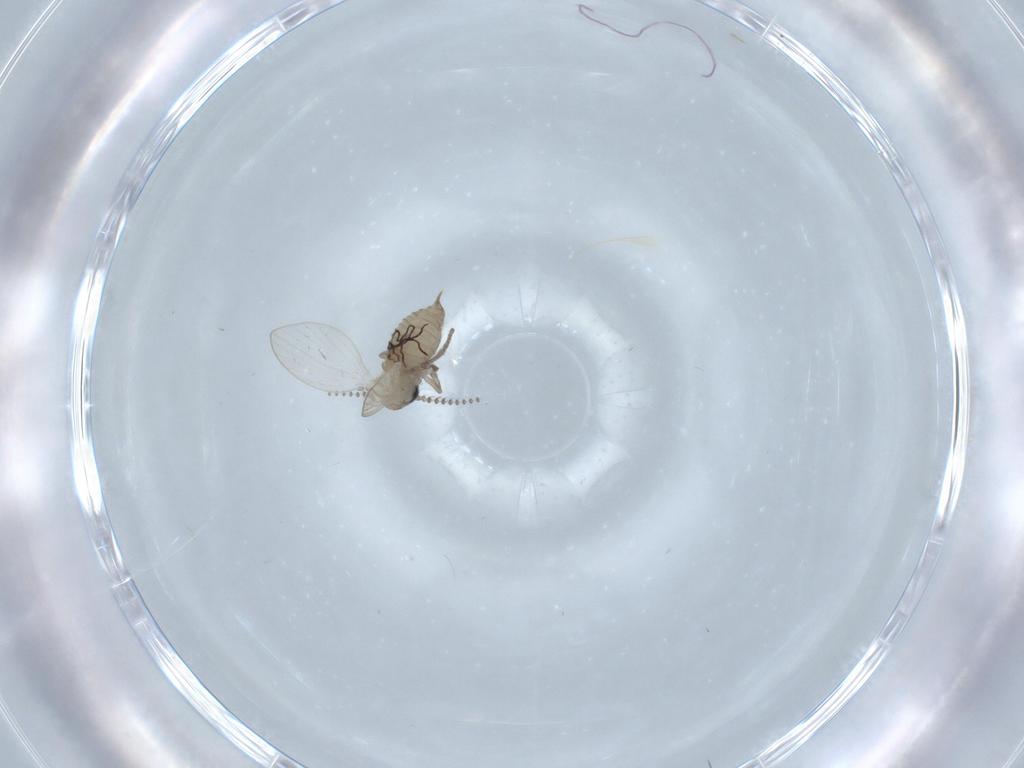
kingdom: Animalia
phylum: Arthropoda
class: Insecta
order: Diptera
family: Psychodidae
